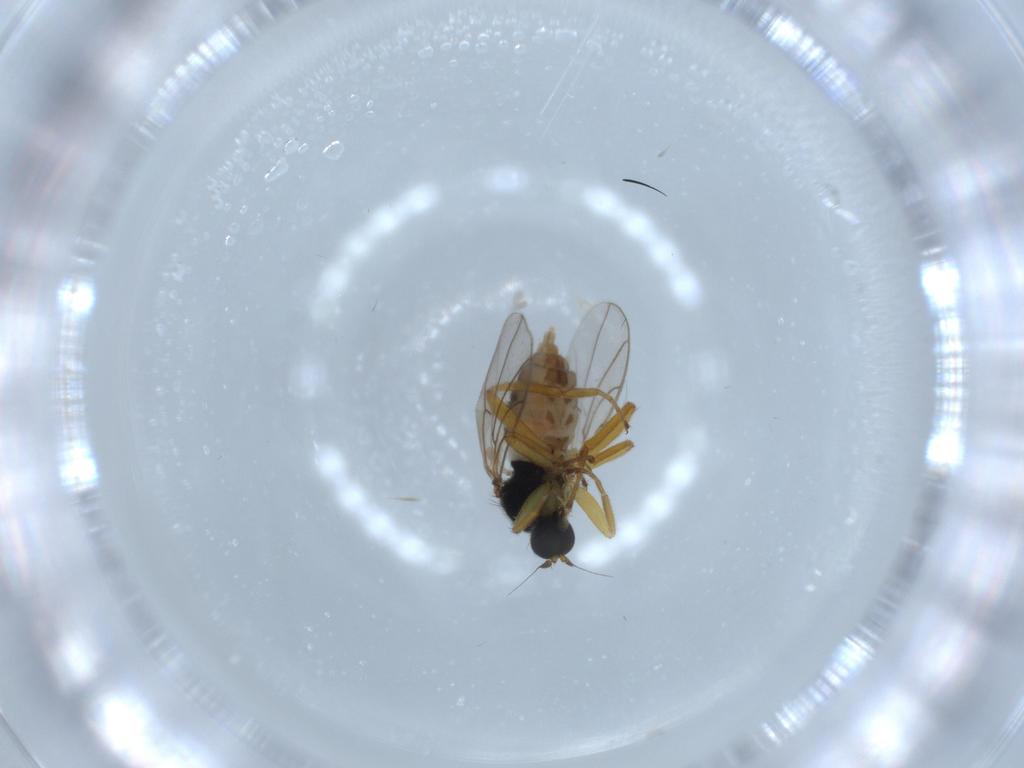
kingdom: Animalia
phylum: Arthropoda
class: Insecta
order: Diptera
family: Hybotidae
